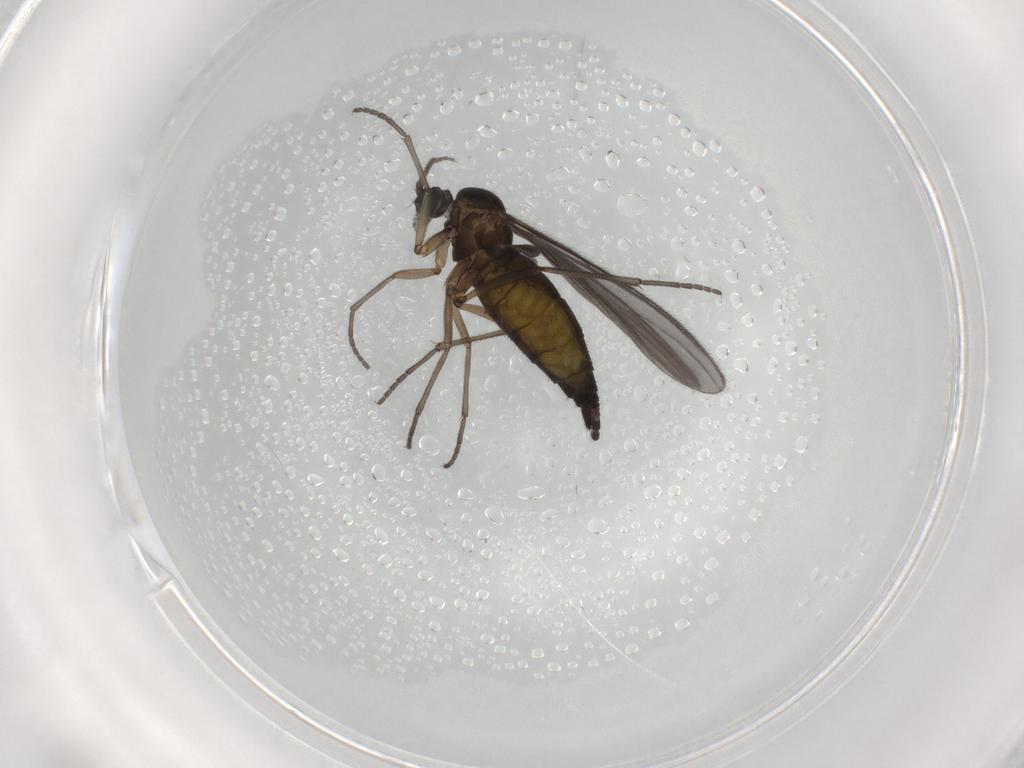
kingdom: Animalia
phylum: Arthropoda
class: Insecta
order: Diptera
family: Sciaridae
